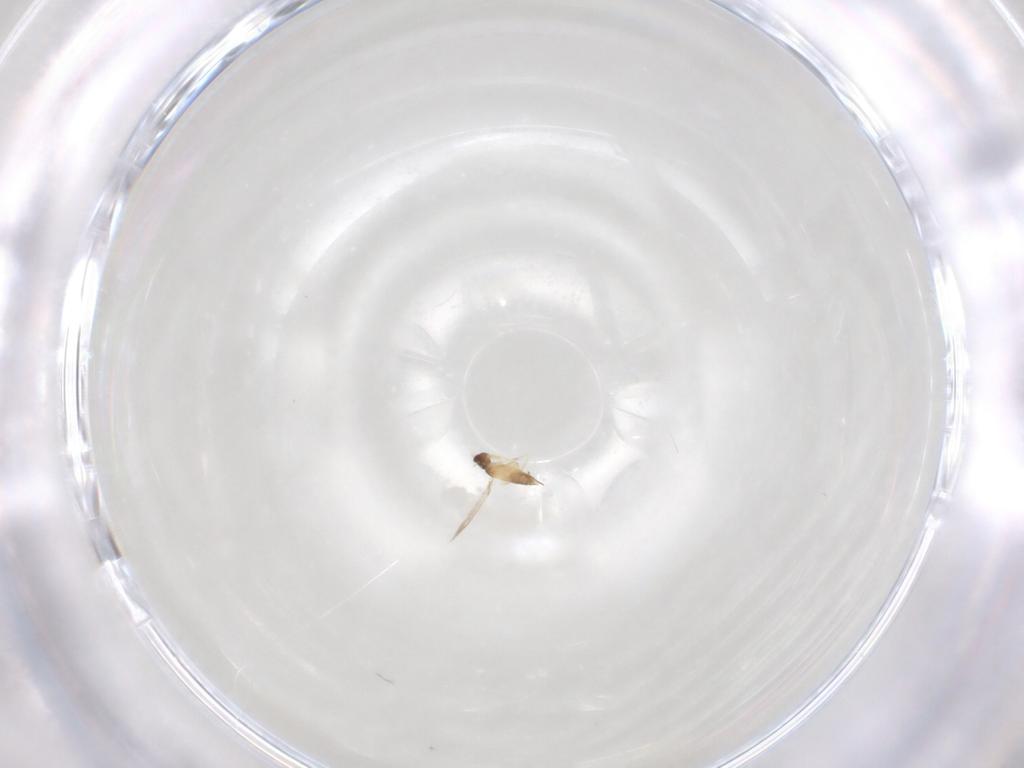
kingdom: Animalia
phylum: Arthropoda
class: Insecta
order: Hymenoptera
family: Mymaridae
